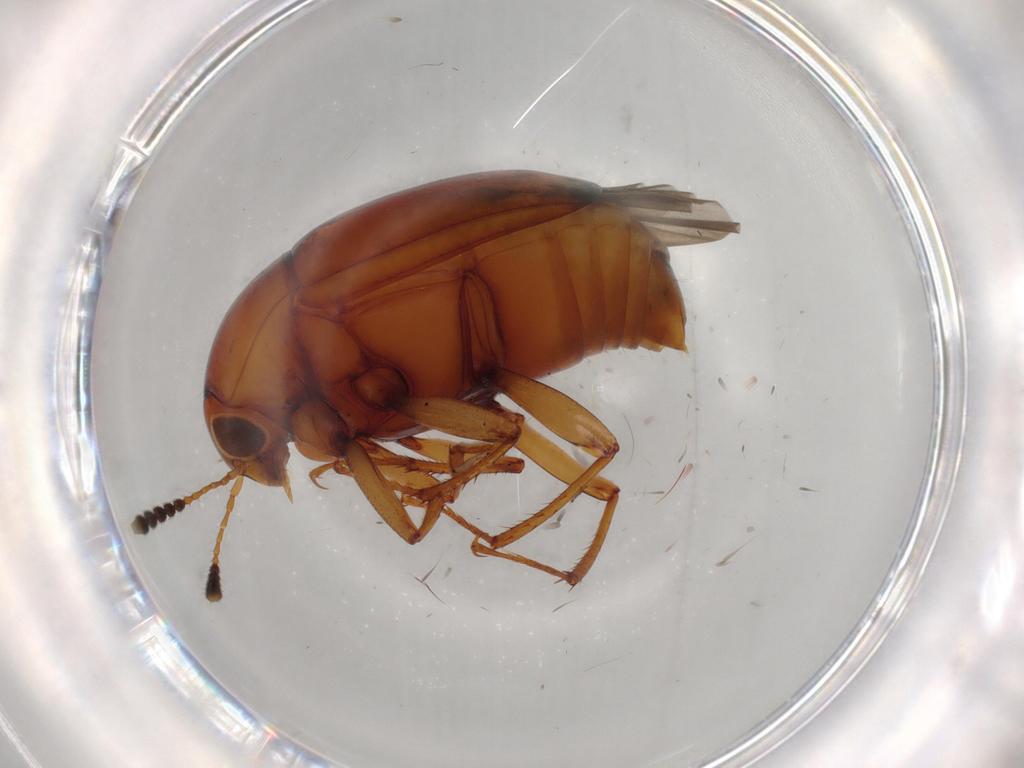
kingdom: Animalia
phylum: Arthropoda
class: Insecta
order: Coleoptera
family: Staphylinidae
